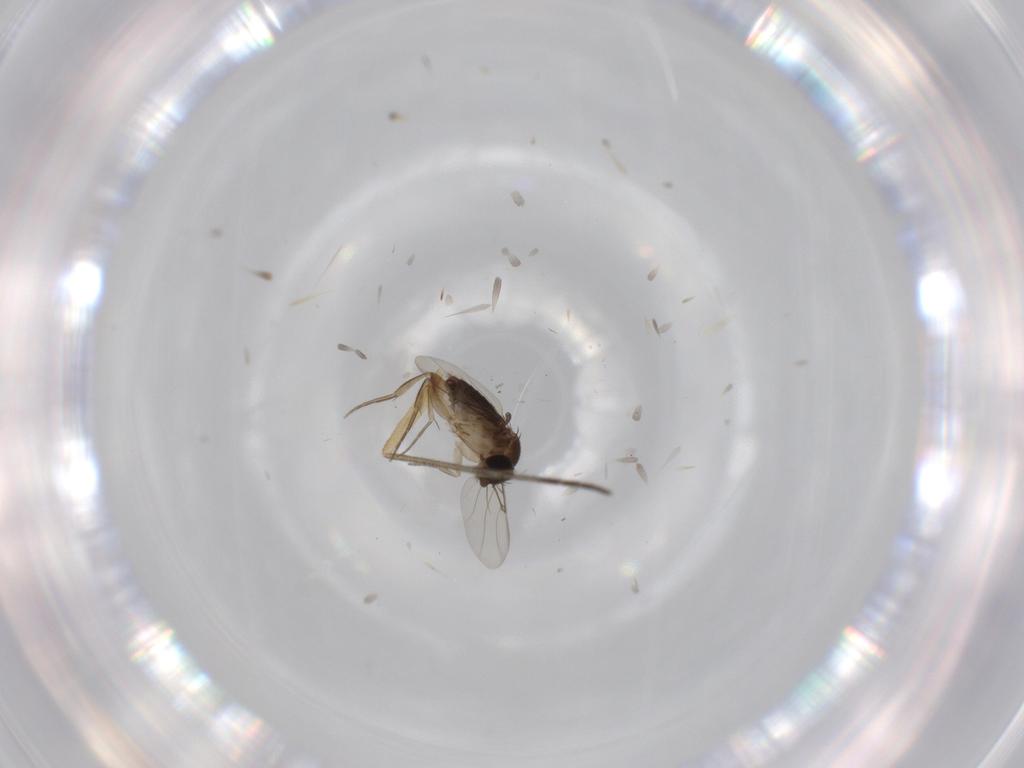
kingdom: Animalia
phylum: Arthropoda
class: Insecta
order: Diptera
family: Phoridae
